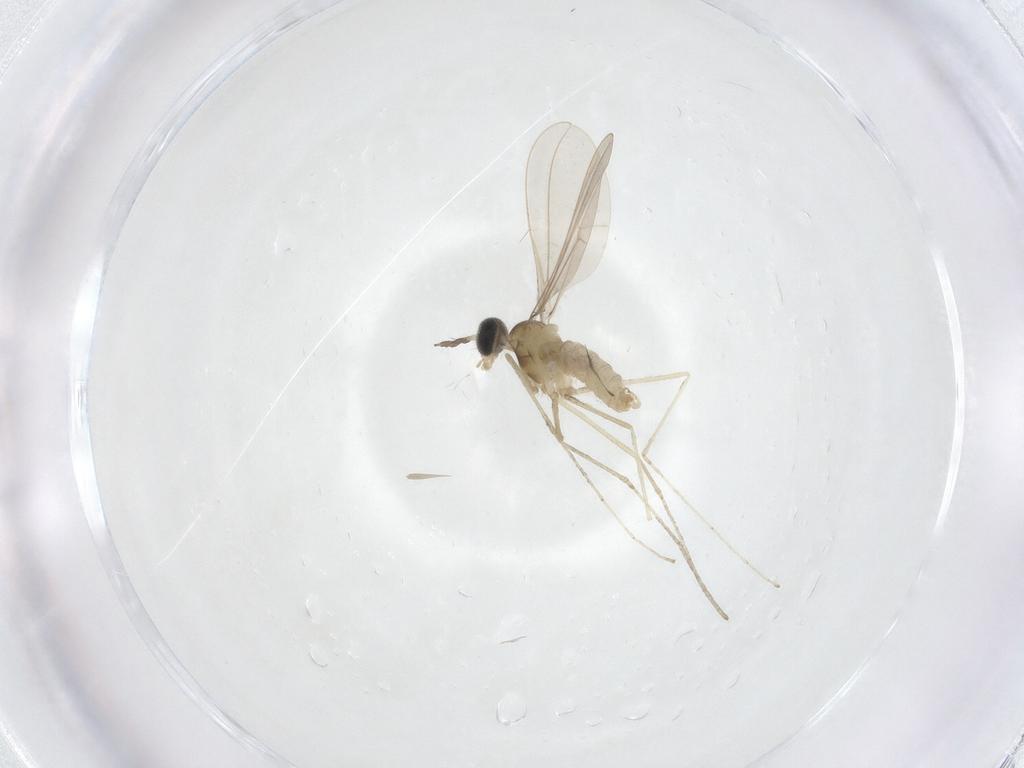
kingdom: Animalia
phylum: Arthropoda
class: Insecta
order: Diptera
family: Cecidomyiidae
